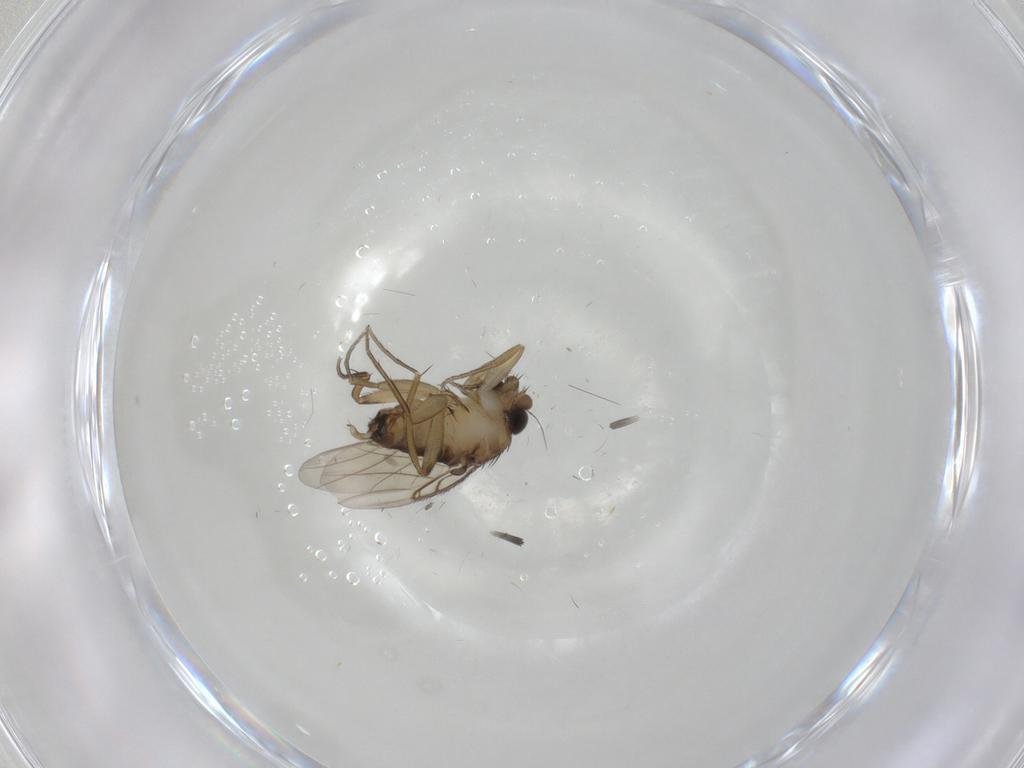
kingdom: Animalia
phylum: Arthropoda
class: Insecta
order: Diptera
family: Phoridae
